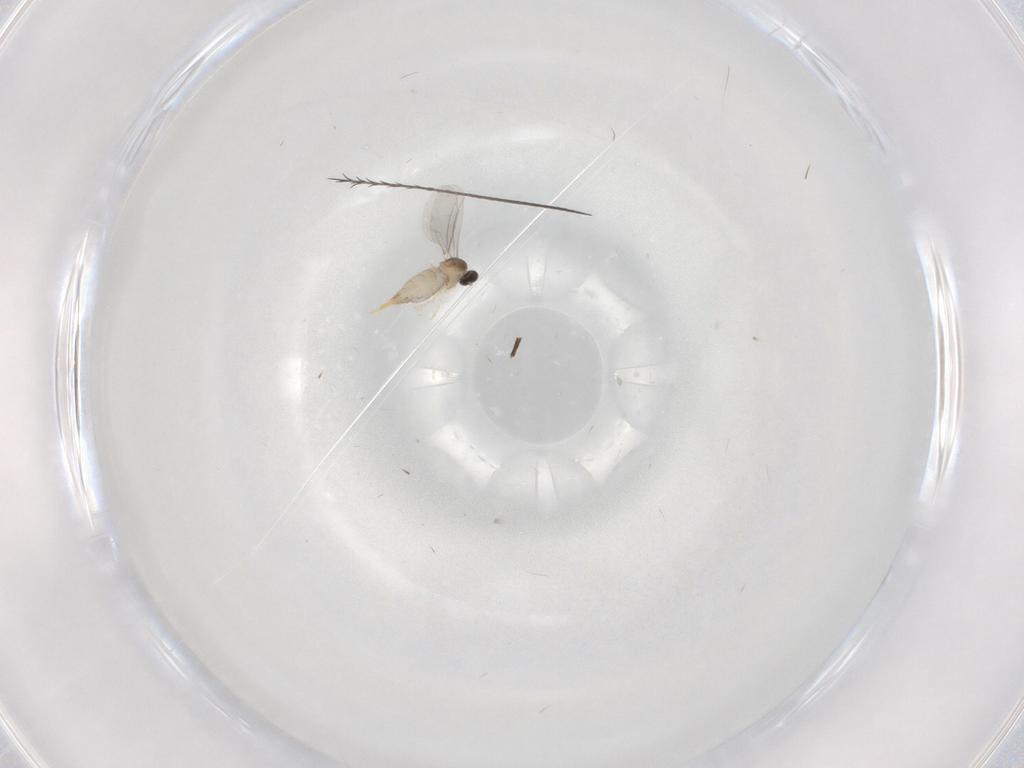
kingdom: Animalia
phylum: Arthropoda
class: Insecta
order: Diptera
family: Cecidomyiidae
